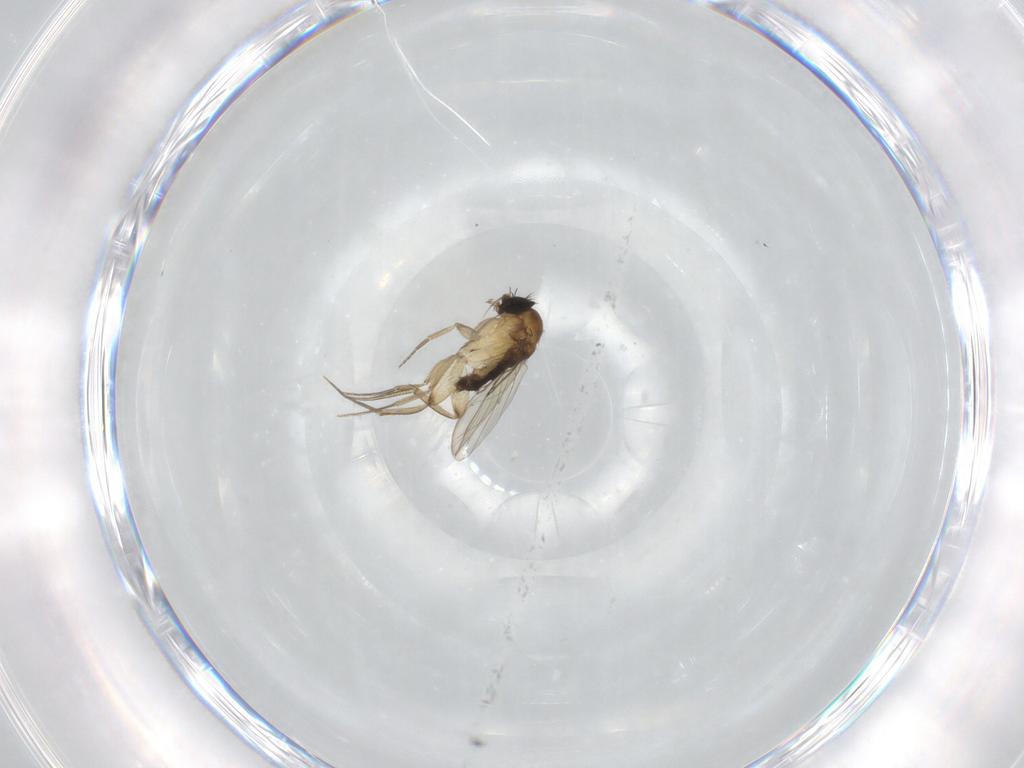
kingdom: Animalia
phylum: Arthropoda
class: Insecta
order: Diptera
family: Phoridae
